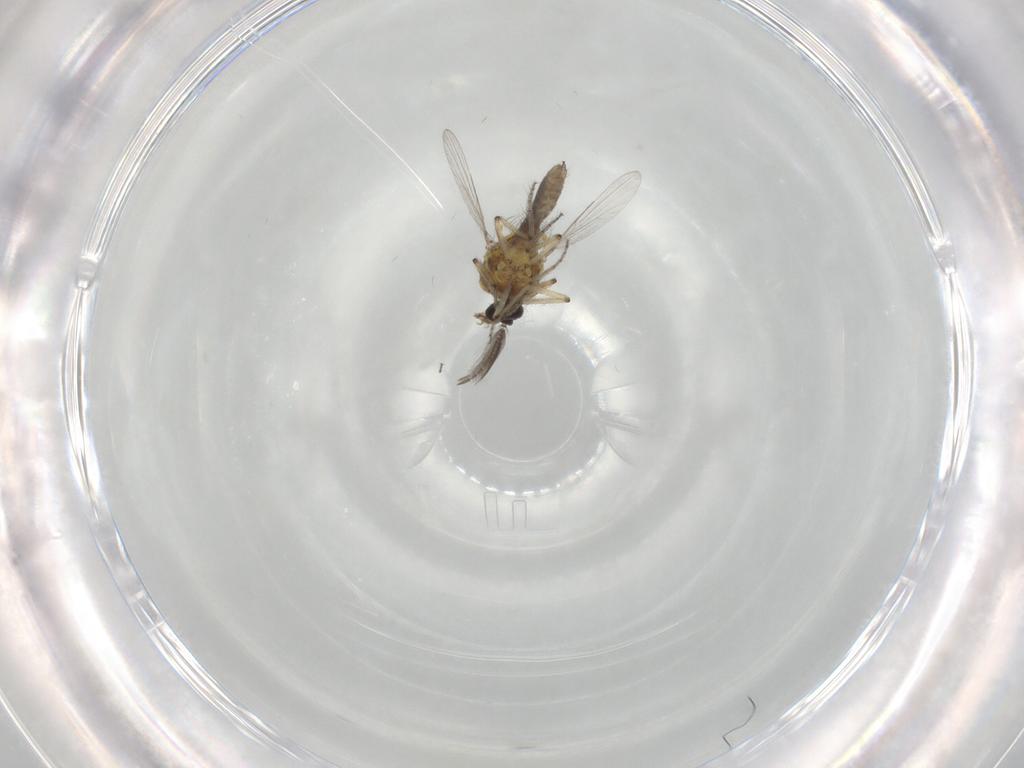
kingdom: Animalia
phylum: Arthropoda
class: Insecta
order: Diptera
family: Ceratopogonidae
